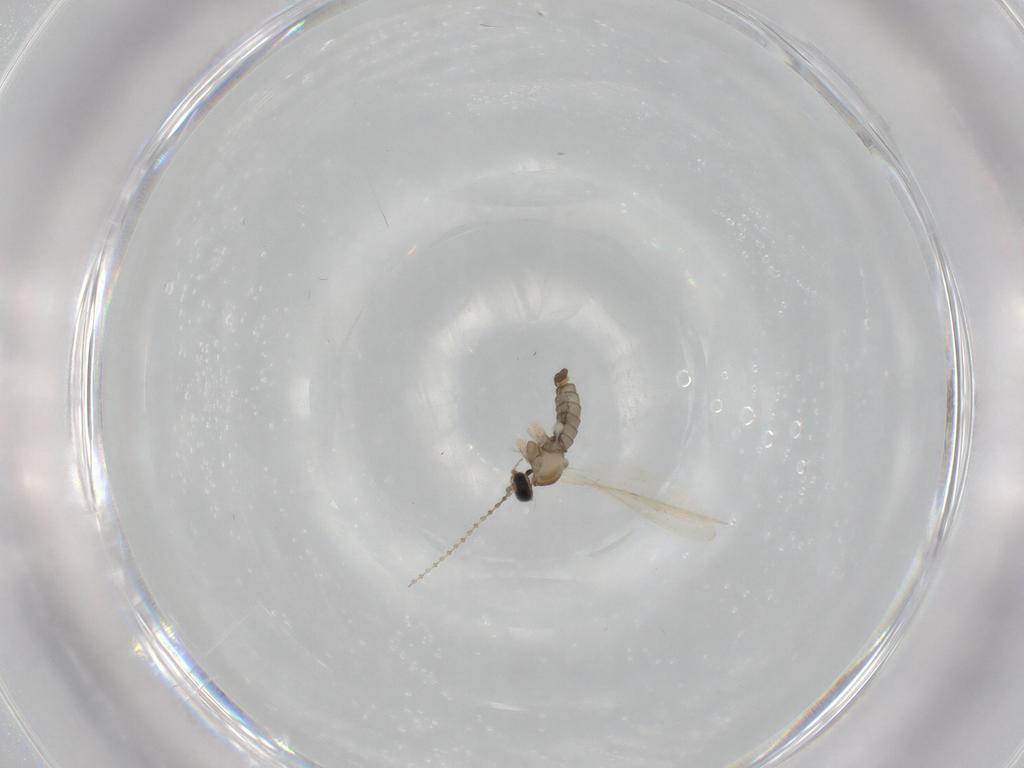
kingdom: Animalia
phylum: Arthropoda
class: Insecta
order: Diptera
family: Cecidomyiidae
